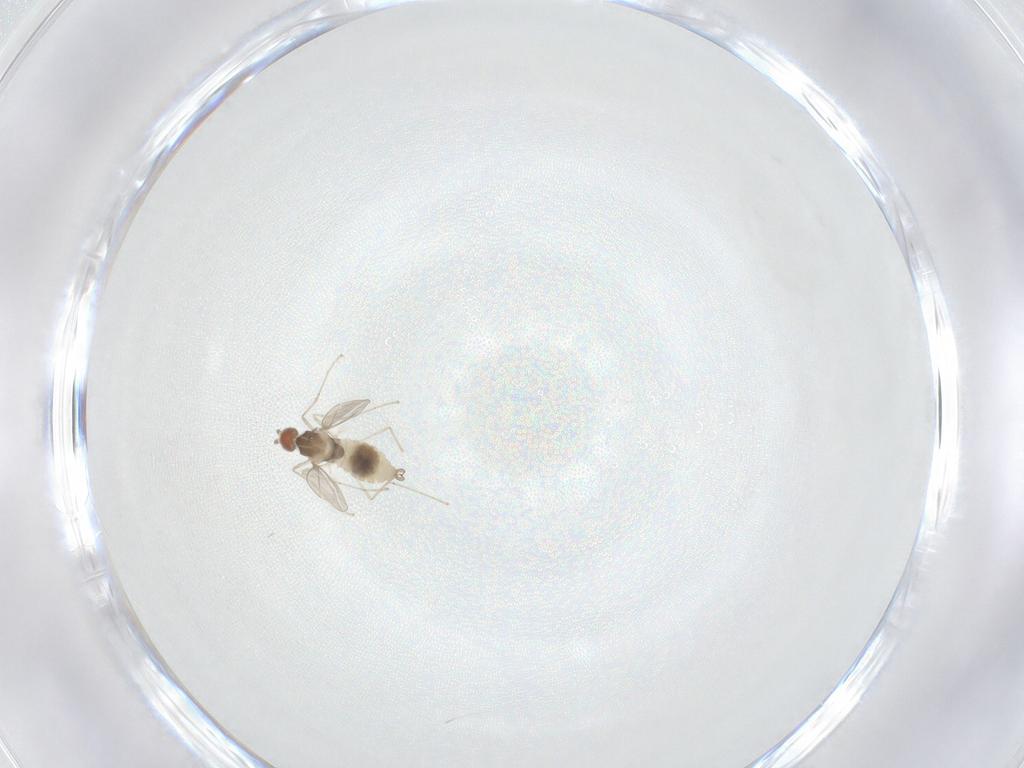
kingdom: Animalia
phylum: Arthropoda
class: Insecta
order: Diptera
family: Cecidomyiidae
